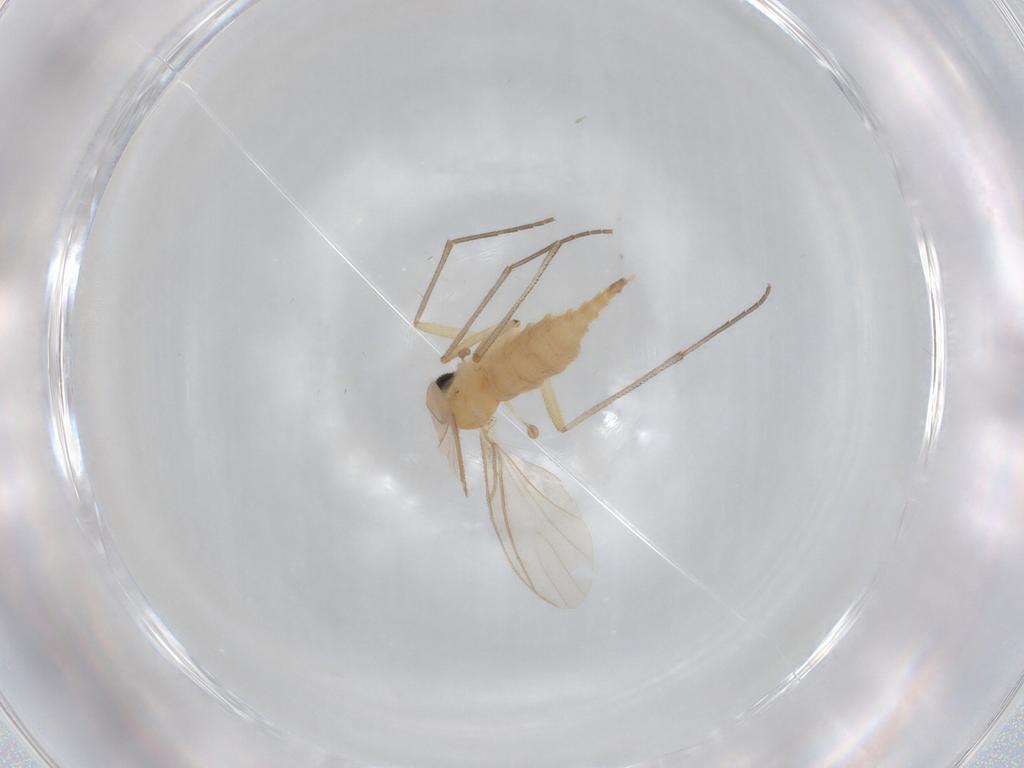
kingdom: Animalia
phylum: Arthropoda
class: Insecta
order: Diptera
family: Sciaridae
